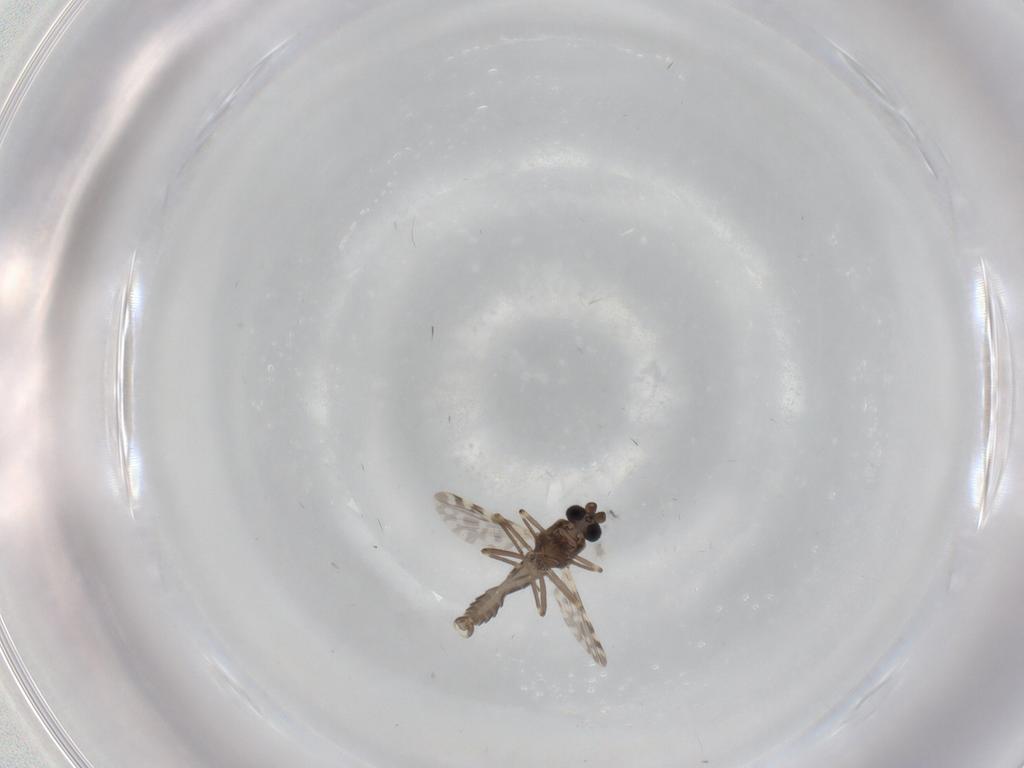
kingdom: Animalia
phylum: Arthropoda
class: Insecta
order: Diptera
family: Ceratopogonidae
